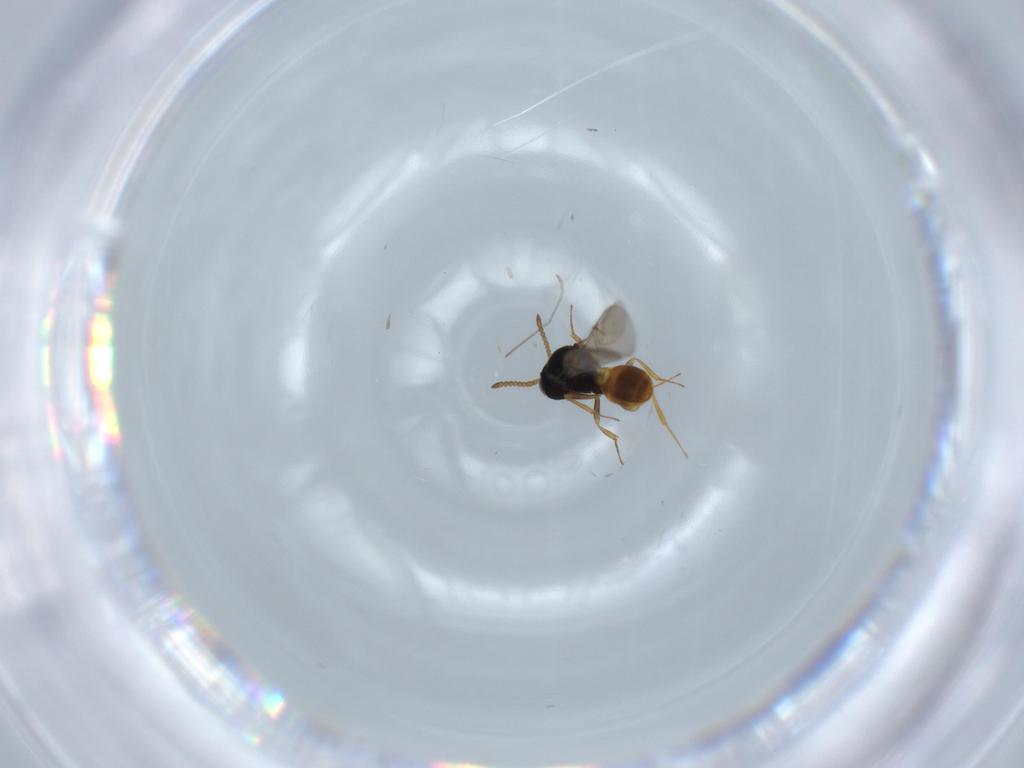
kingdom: Animalia
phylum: Arthropoda
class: Insecta
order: Hymenoptera
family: Scelionidae
